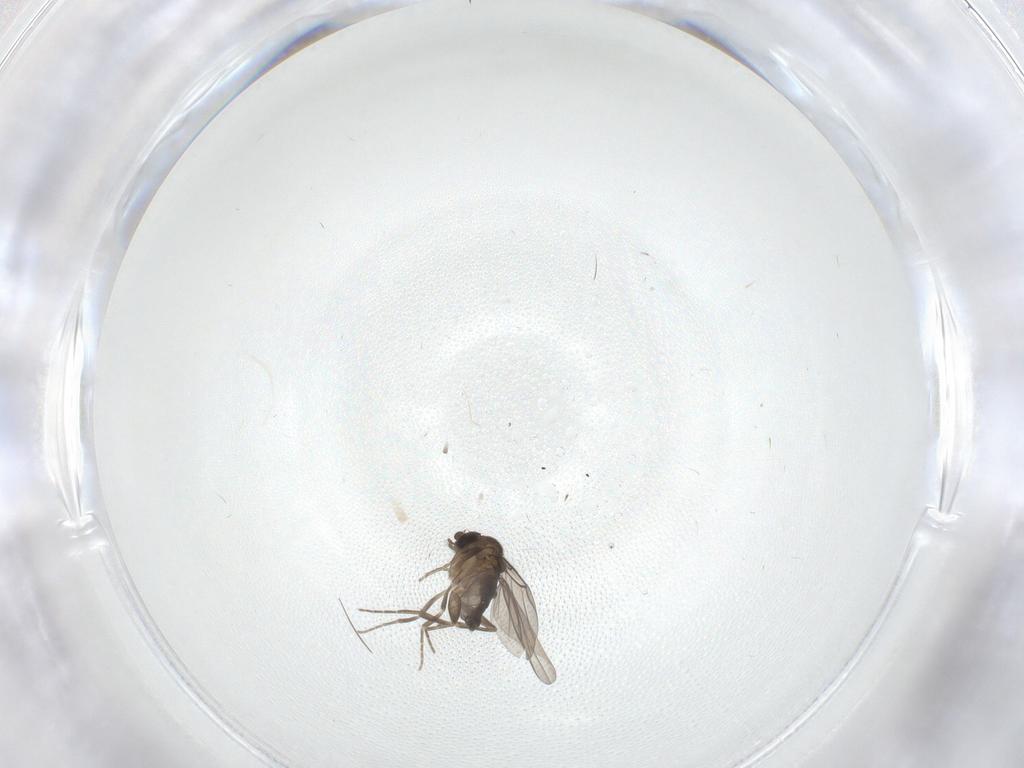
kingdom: Animalia
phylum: Arthropoda
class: Insecta
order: Diptera
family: Phoridae
